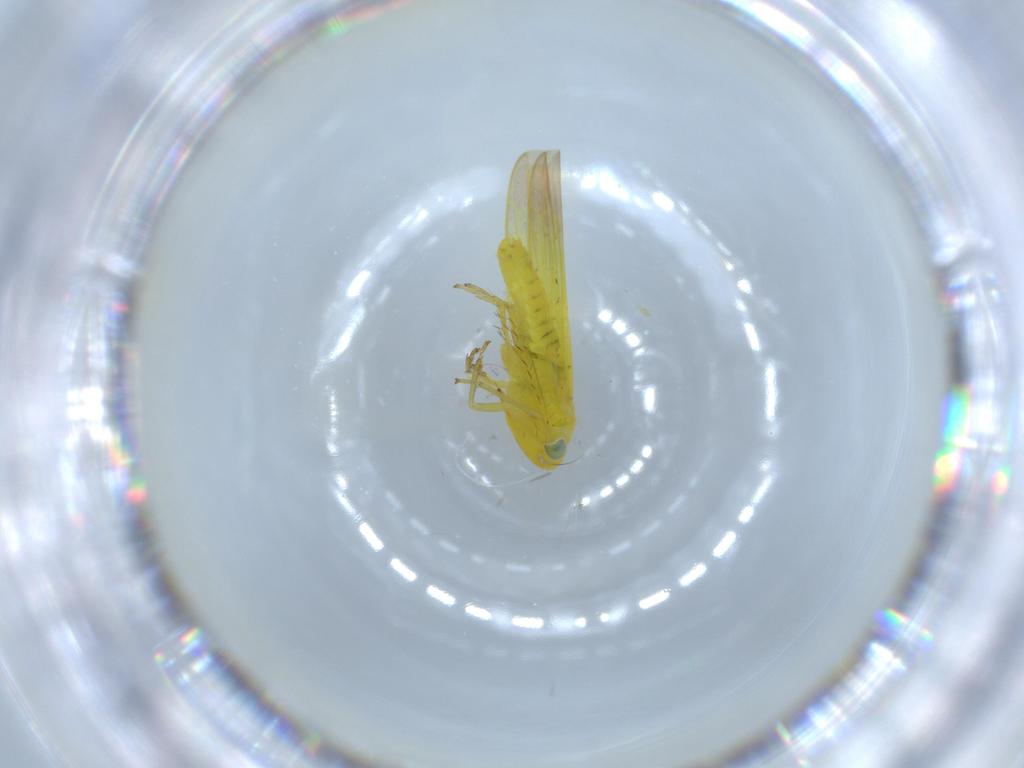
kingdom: Animalia
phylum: Arthropoda
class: Insecta
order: Hemiptera
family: Cicadellidae
